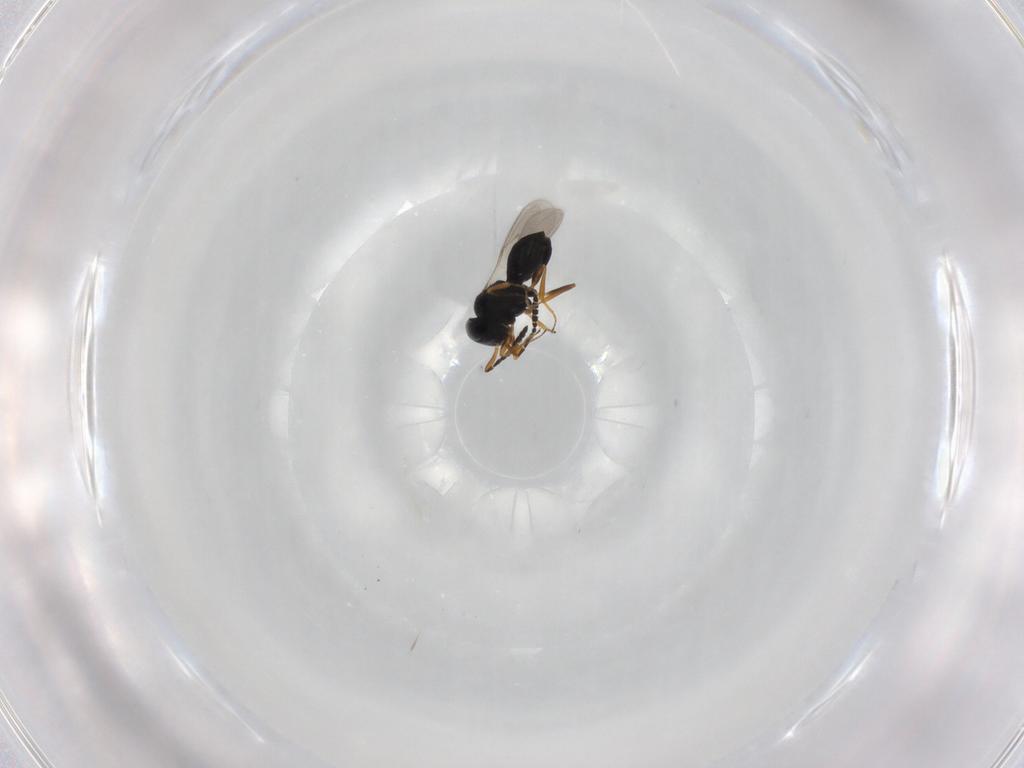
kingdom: Animalia
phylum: Arthropoda
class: Insecta
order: Hymenoptera
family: Scelionidae
